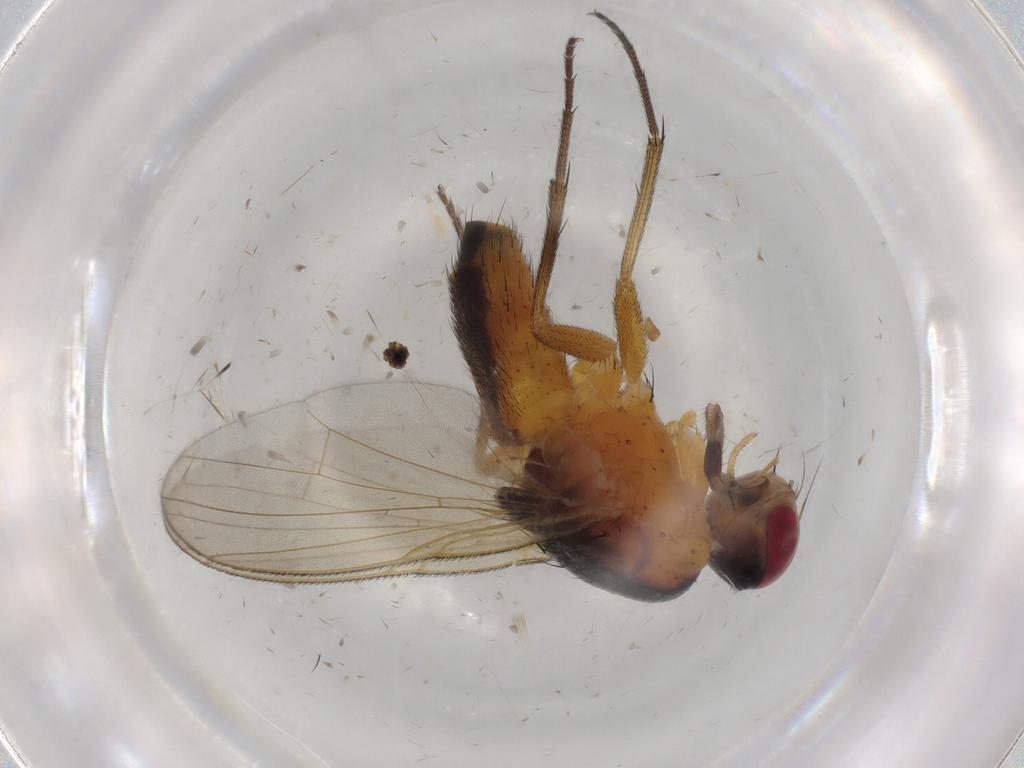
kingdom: Animalia
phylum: Arthropoda
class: Insecta
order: Diptera
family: Muscidae
